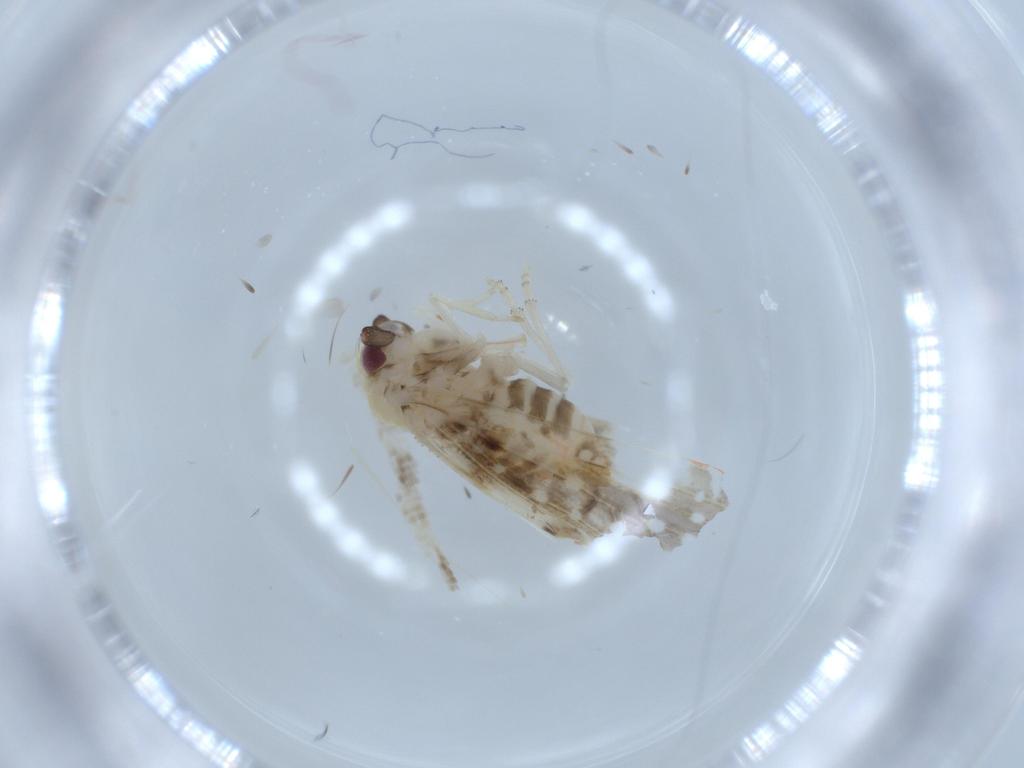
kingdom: Animalia
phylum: Arthropoda
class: Insecta
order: Hemiptera
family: Derbidae
